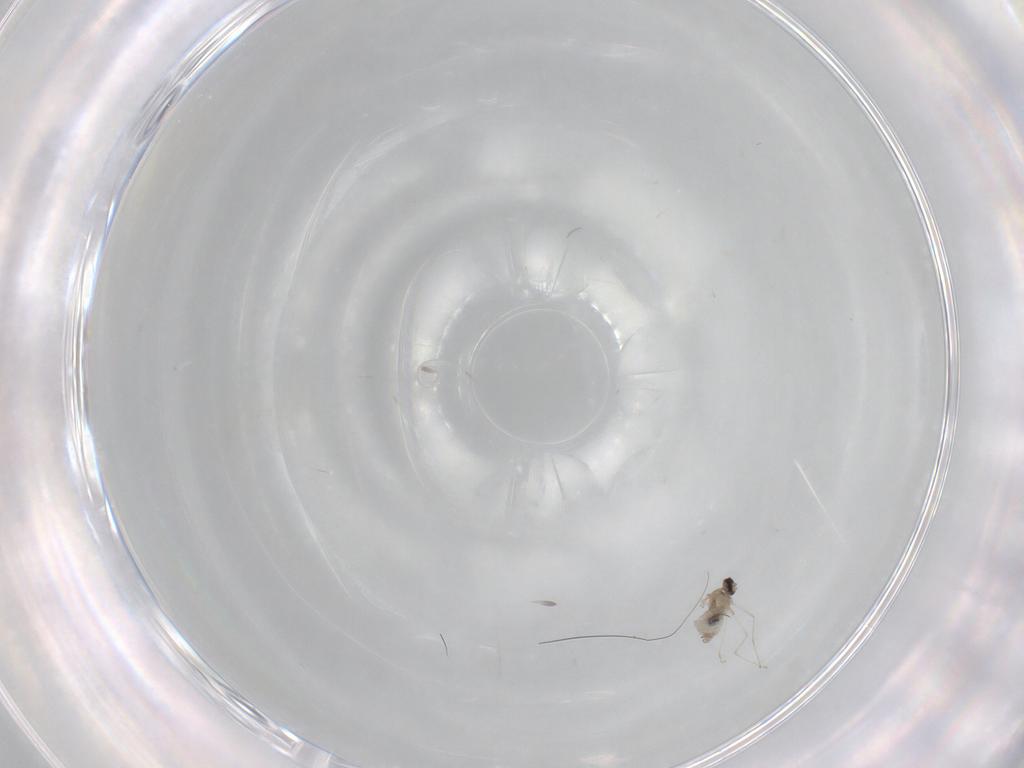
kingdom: Animalia
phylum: Arthropoda
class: Insecta
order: Diptera
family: Cecidomyiidae
